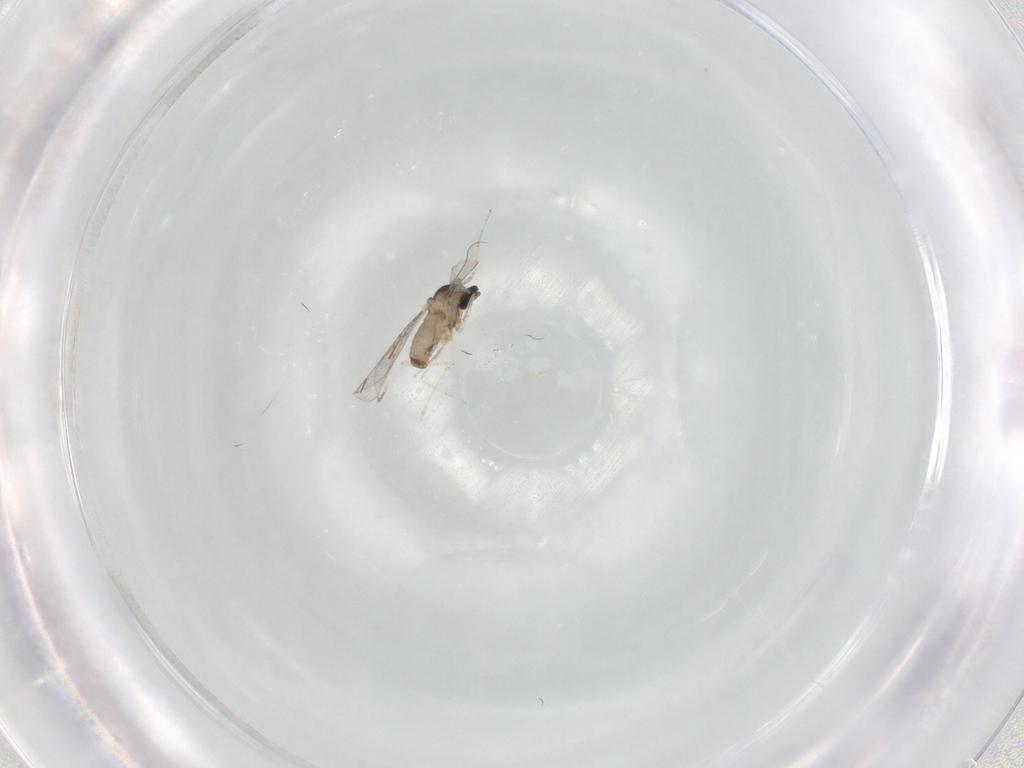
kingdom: Animalia
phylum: Arthropoda
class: Insecta
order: Diptera
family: Cecidomyiidae
